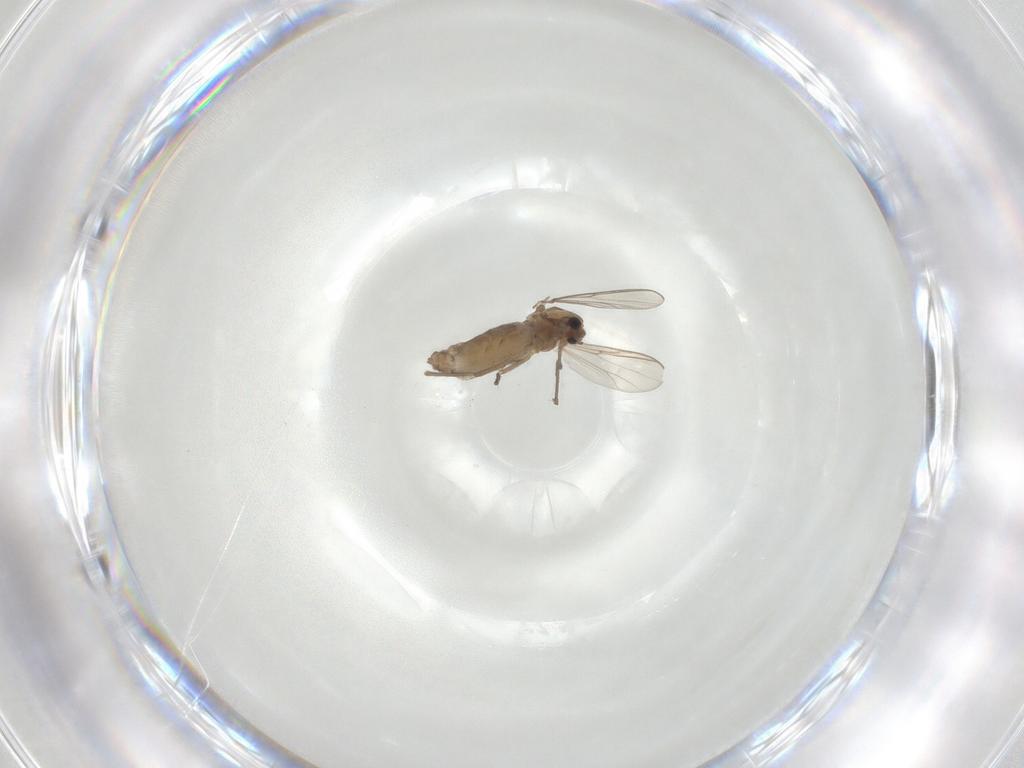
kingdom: Animalia
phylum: Arthropoda
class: Insecta
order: Diptera
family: Chironomidae
